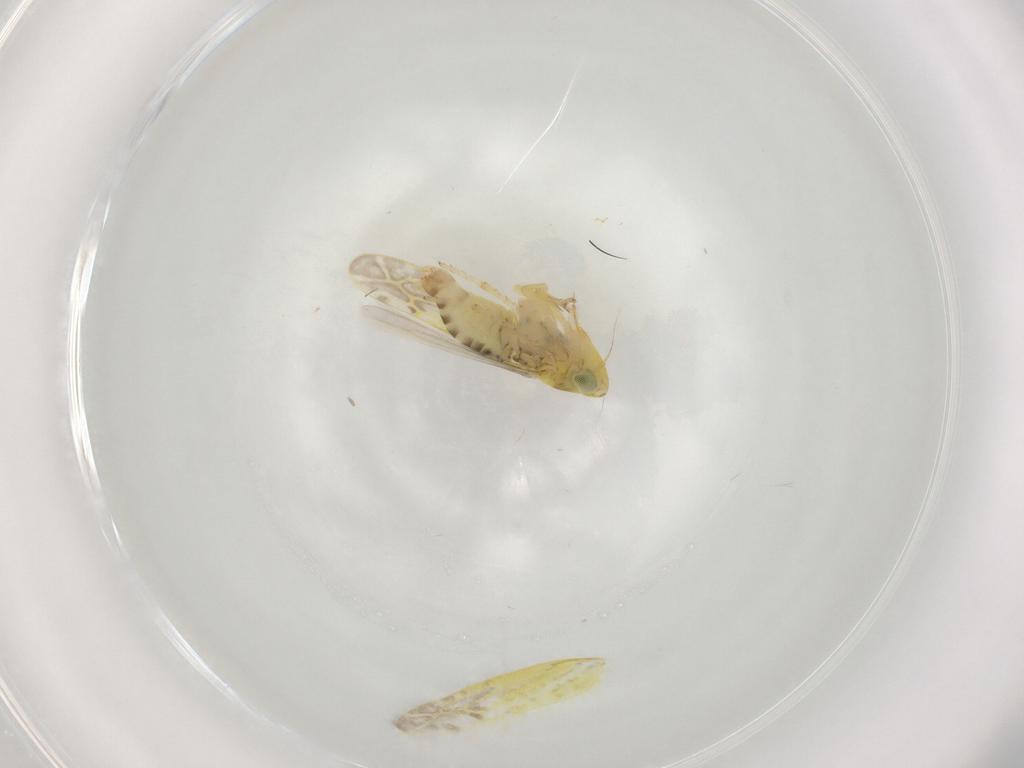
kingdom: Animalia
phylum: Arthropoda
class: Insecta
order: Hemiptera
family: Cicadellidae
